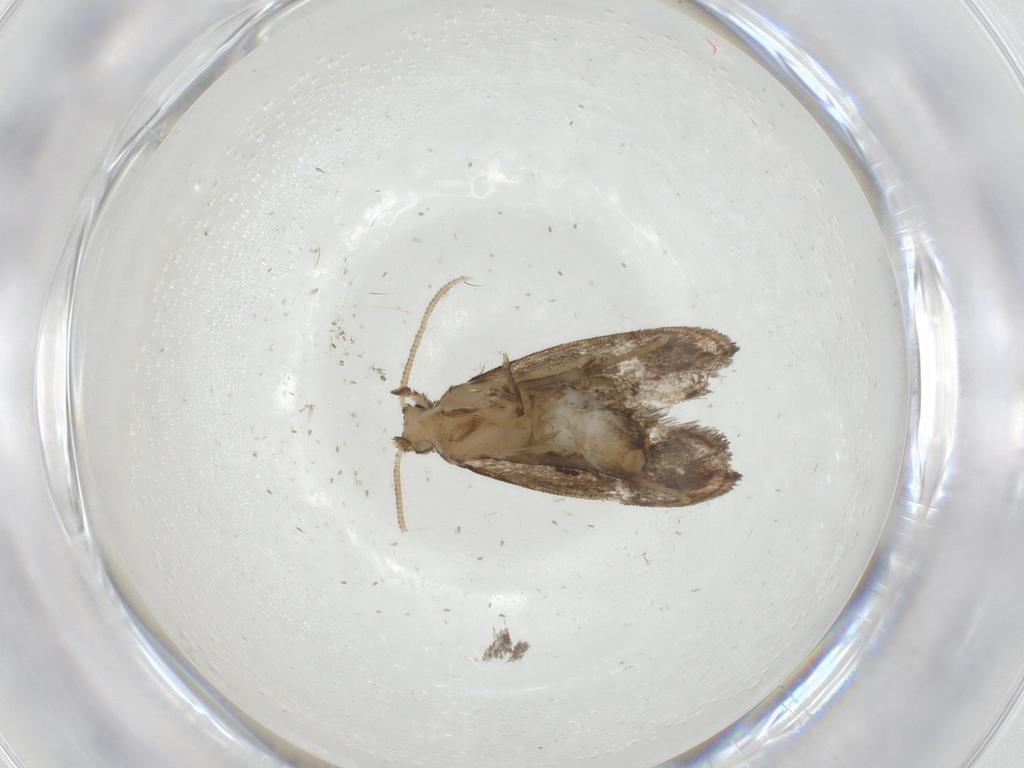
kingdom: Animalia
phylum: Arthropoda
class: Insecta
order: Lepidoptera
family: Dryadaulidae
